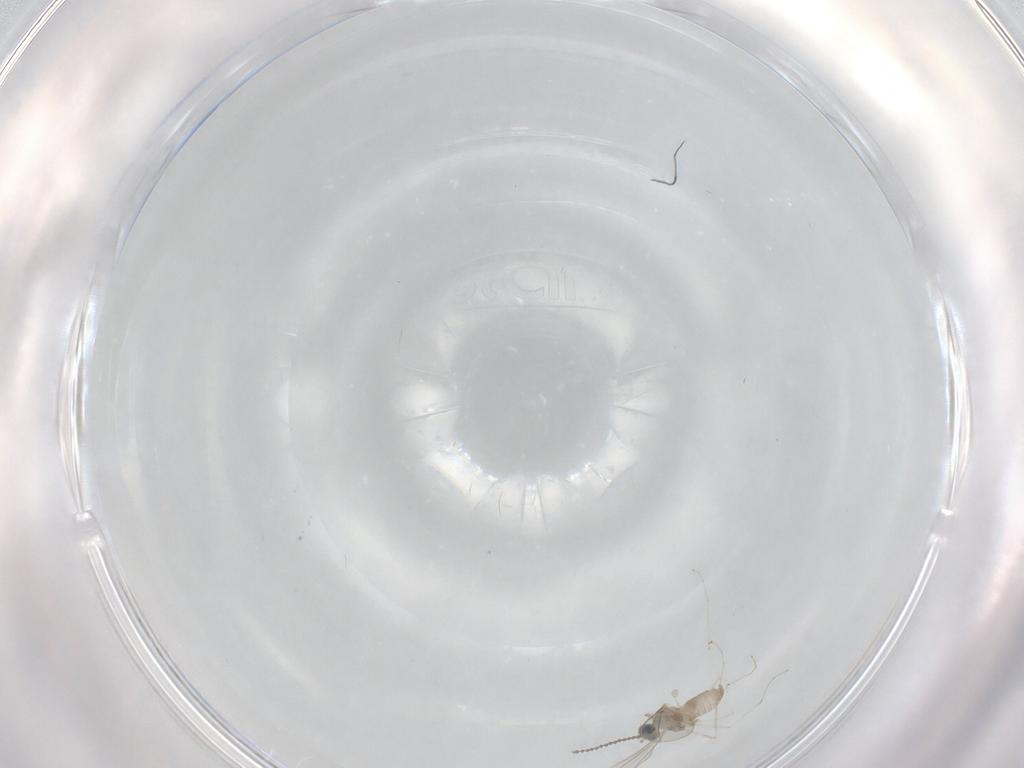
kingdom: Animalia
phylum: Arthropoda
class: Insecta
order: Diptera
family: Cecidomyiidae
